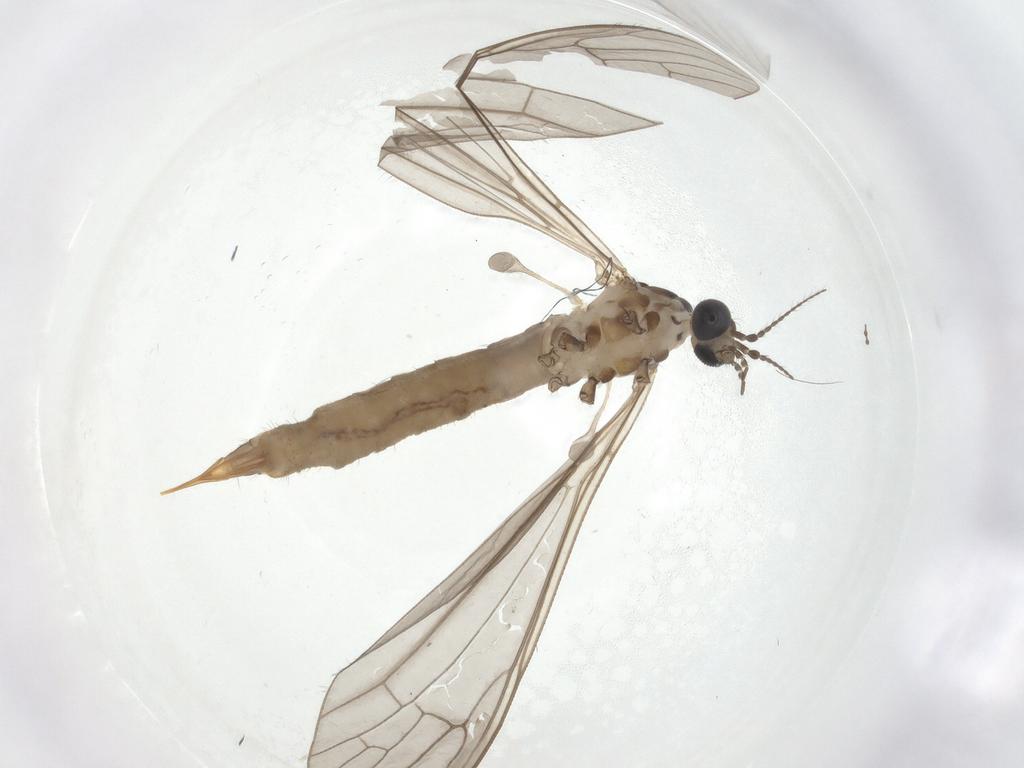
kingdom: Animalia
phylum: Arthropoda
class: Insecta
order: Diptera
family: Limoniidae
